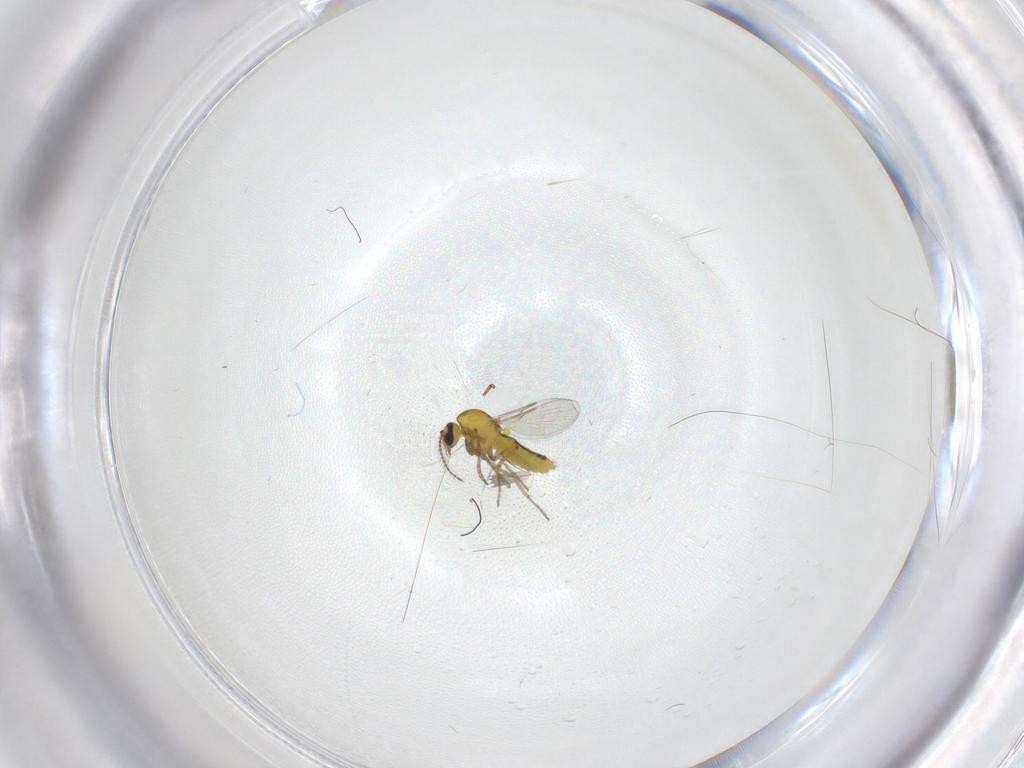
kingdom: Animalia
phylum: Arthropoda
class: Insecta
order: Diptera
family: Ceratopogonidae
